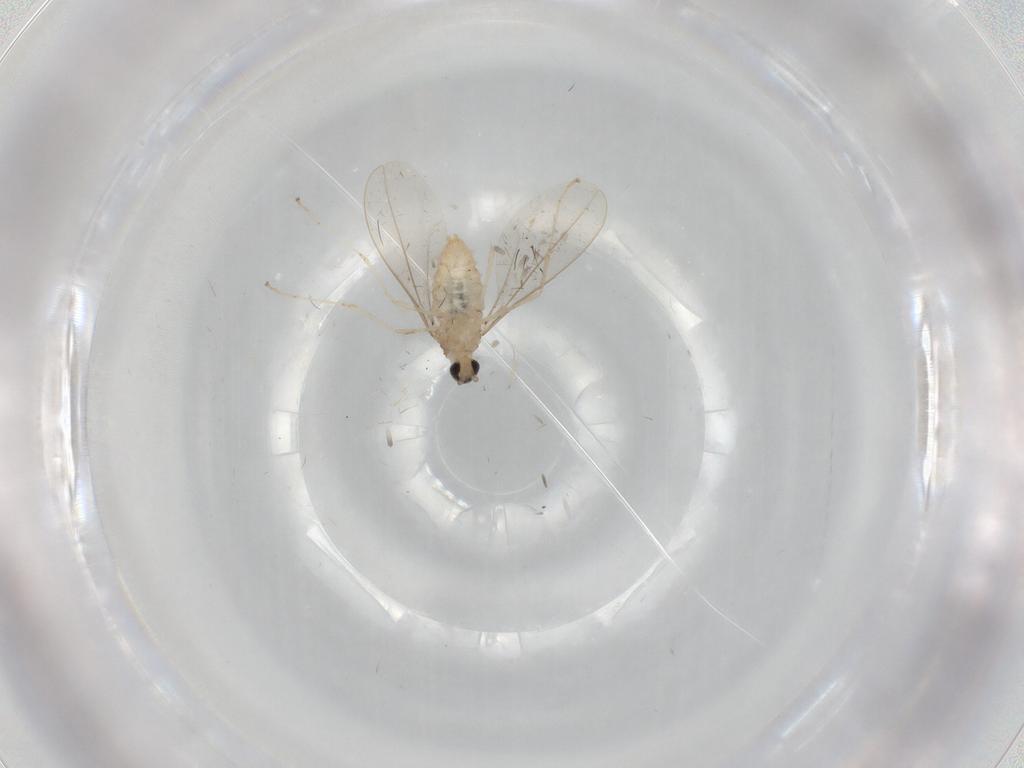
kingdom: Animalia
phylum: Arthropoda
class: Insecta
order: Diptera
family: Cecidomyiidae
